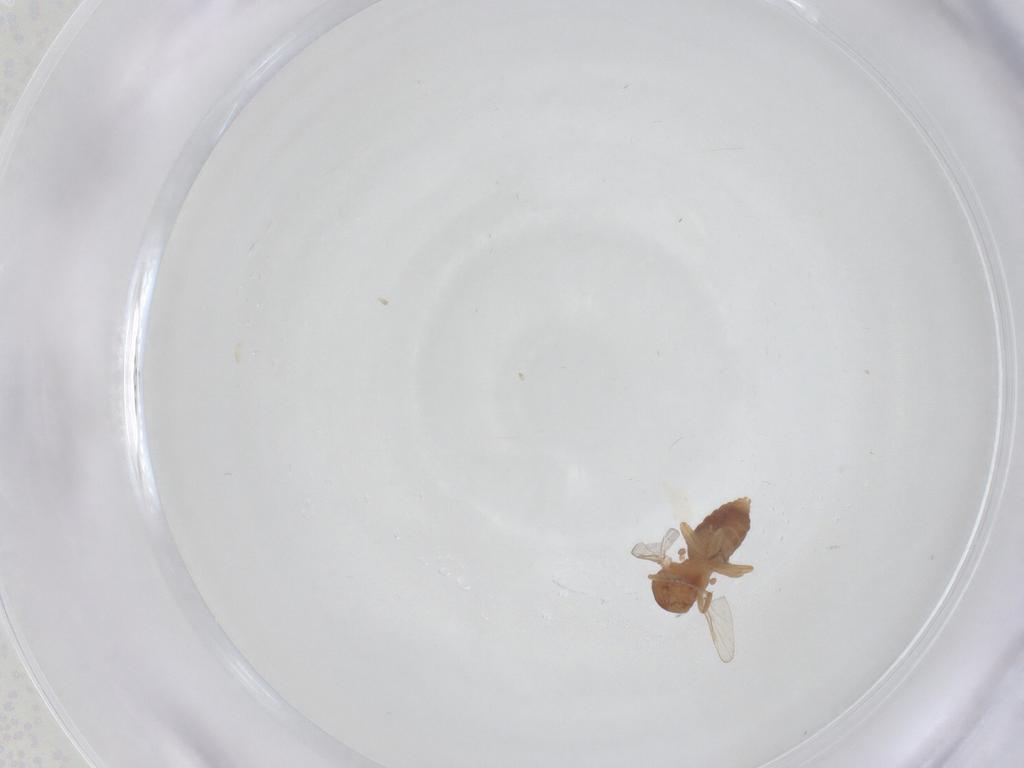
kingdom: Animalia
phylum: Arthropoda
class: Insecta
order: Diptera
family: Ceratopogonidae
